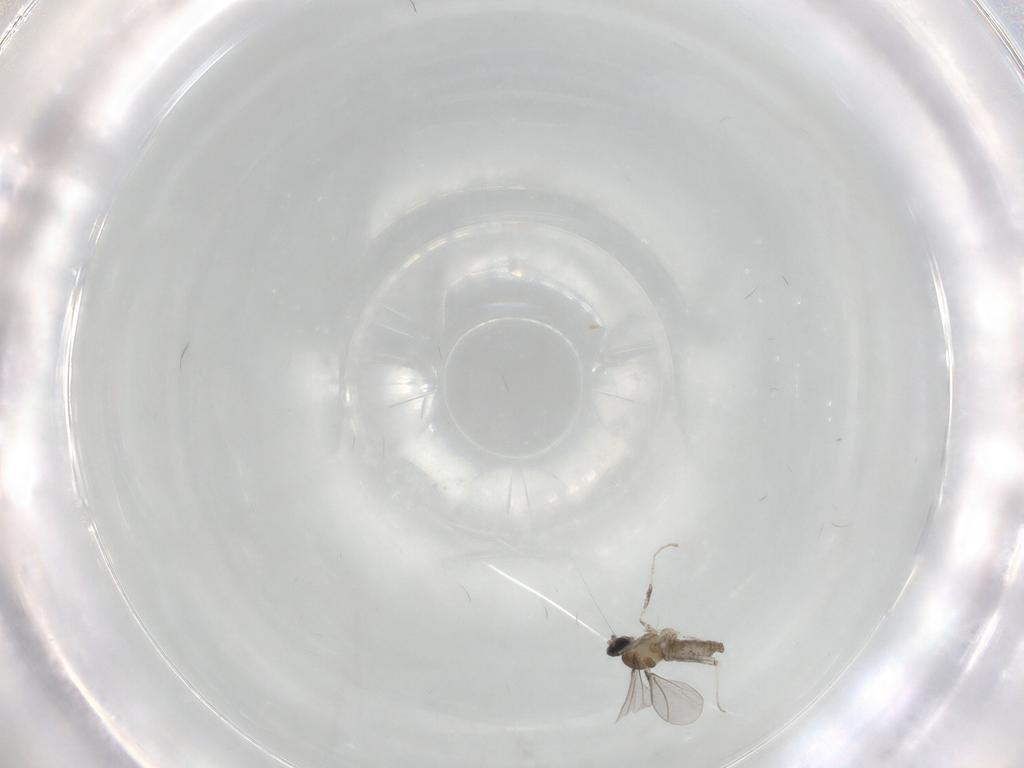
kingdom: Animalia
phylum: Arthropoda
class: Insecta
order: Diptera
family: Cecidomyiidae
